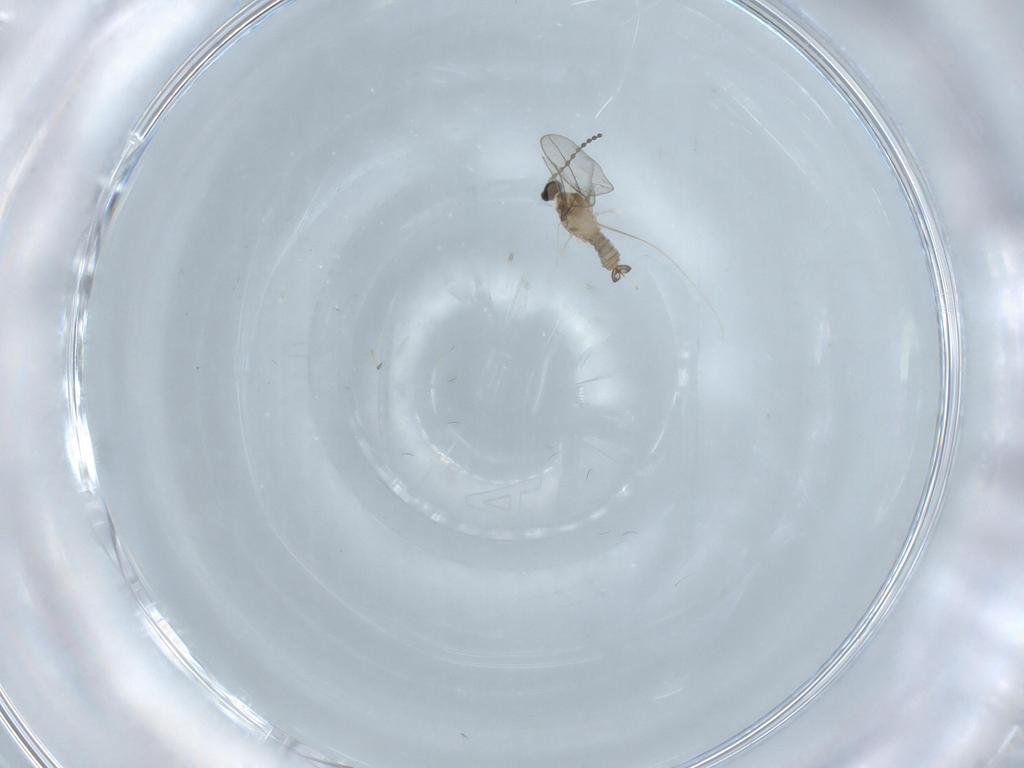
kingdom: Animalia
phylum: Arthropoda
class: Insecta
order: Diptera
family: Cecidomyiidae
